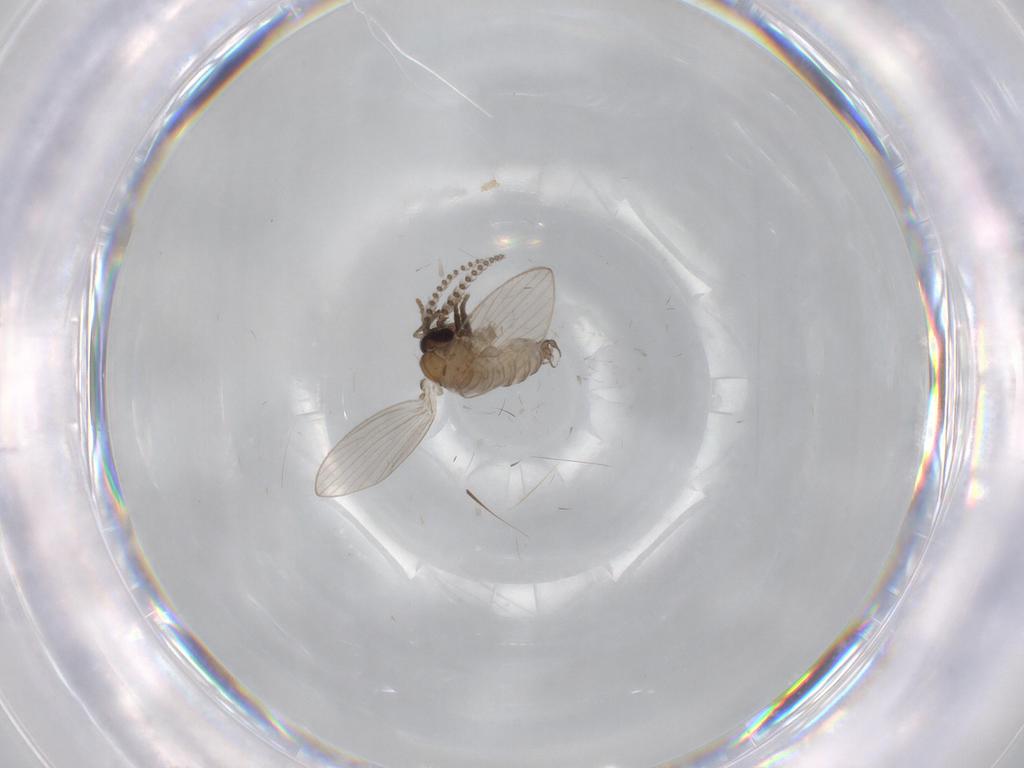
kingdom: Animalia
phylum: Arthropoda
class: Insecta
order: Diptera
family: Psychodidae
